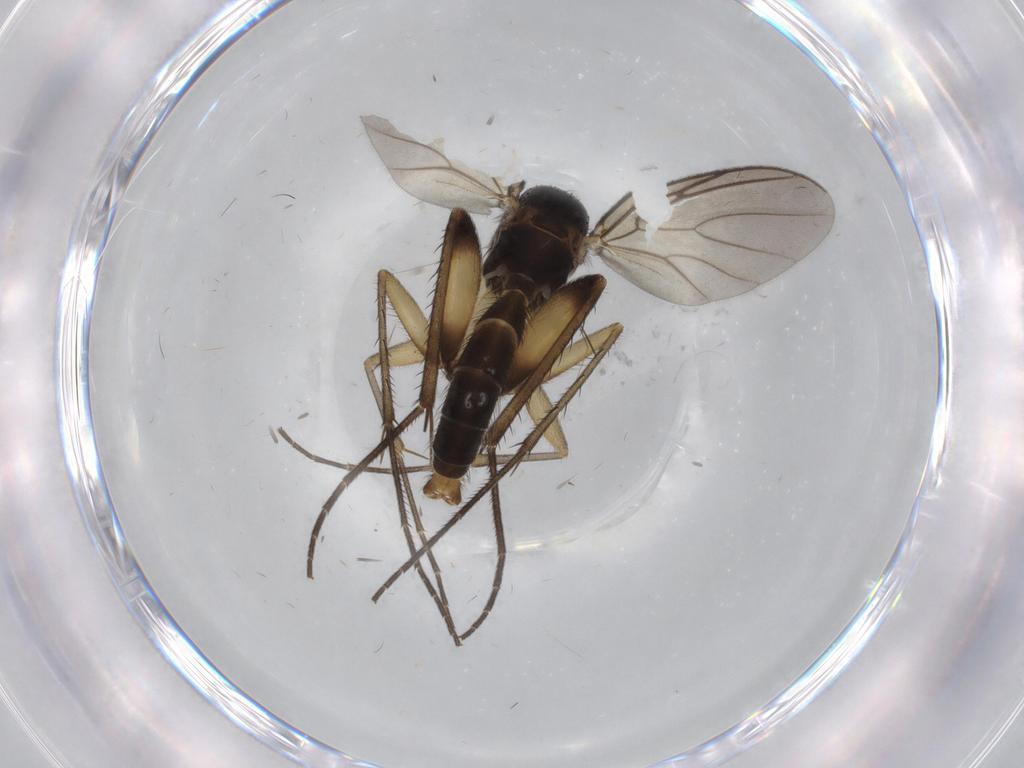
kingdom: Animalia
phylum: Arthropoda
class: Insecta
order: Diptera
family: Mycetophilidae
